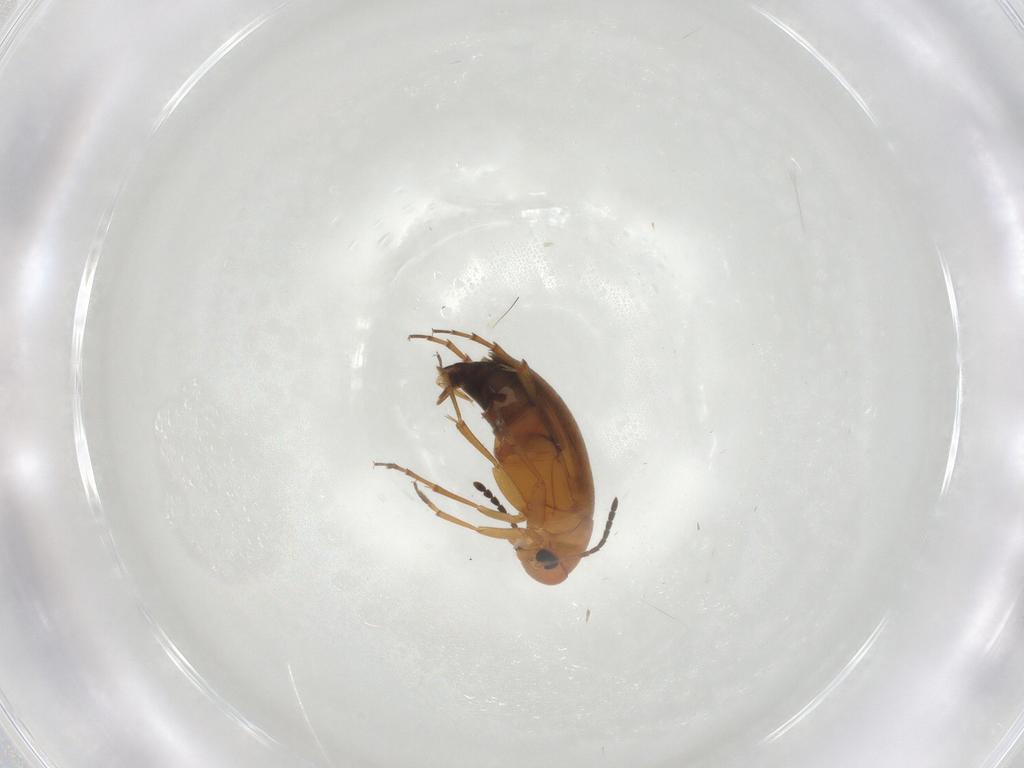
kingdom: Animalia
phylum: Arthropoda
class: Insecta
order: Coleoptera
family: Scraptiidae
